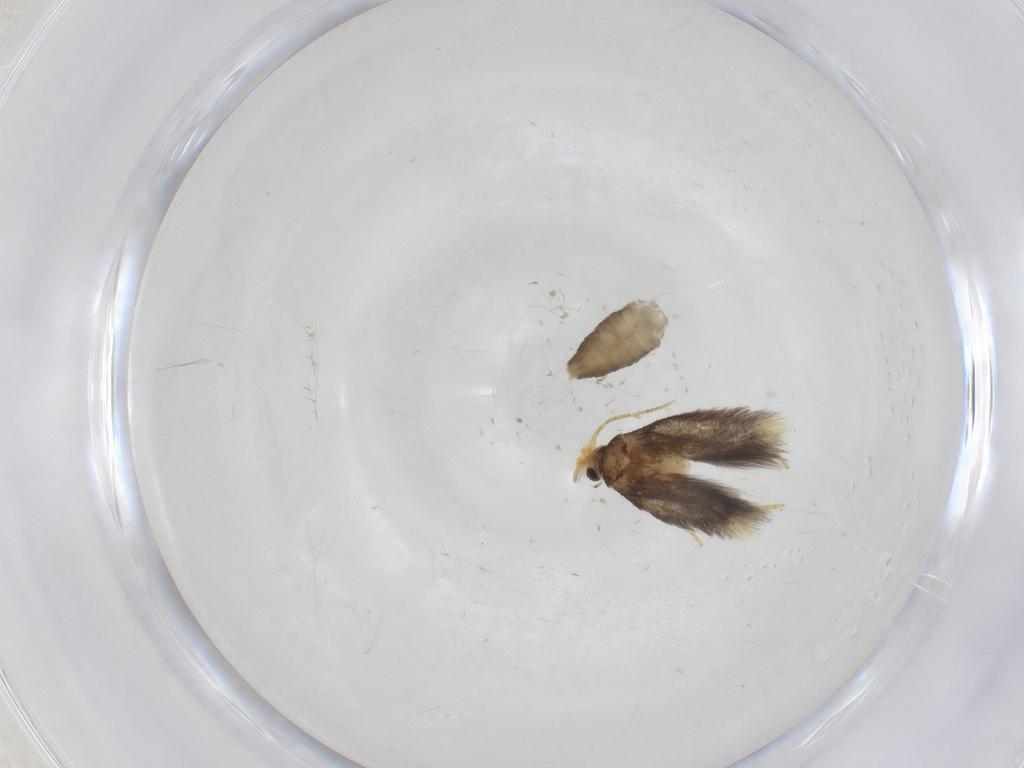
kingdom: Animalia
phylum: Arthropoda
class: Insecta
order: Lepidoptera
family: Nepticulidae
